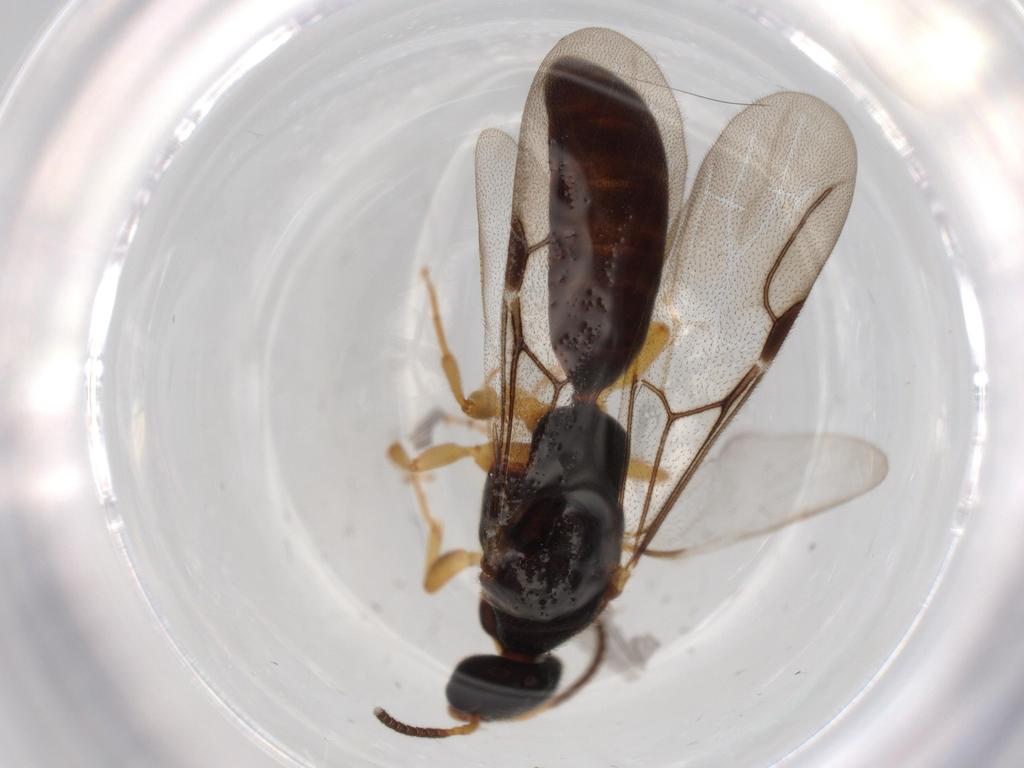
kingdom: Animalia
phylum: Arthropoda
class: Insecta
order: Hymenoptera
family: Bethylidae
